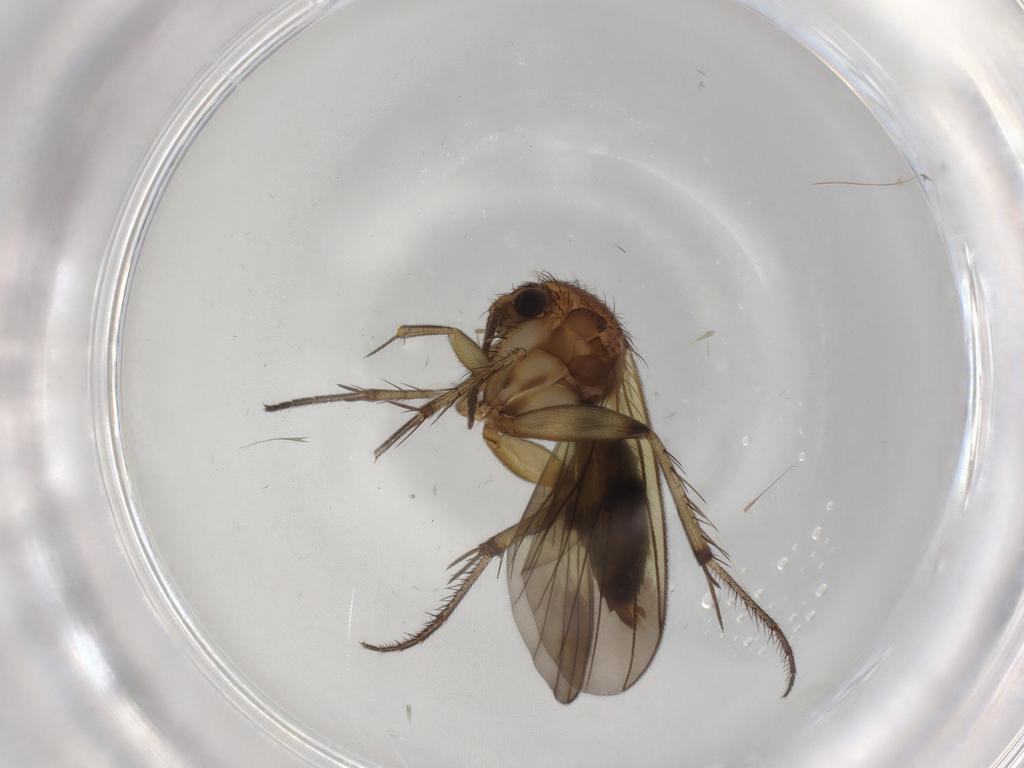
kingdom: Animalia
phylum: Arthropoda
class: Insecta
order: Diptera
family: Mycetophilidae
